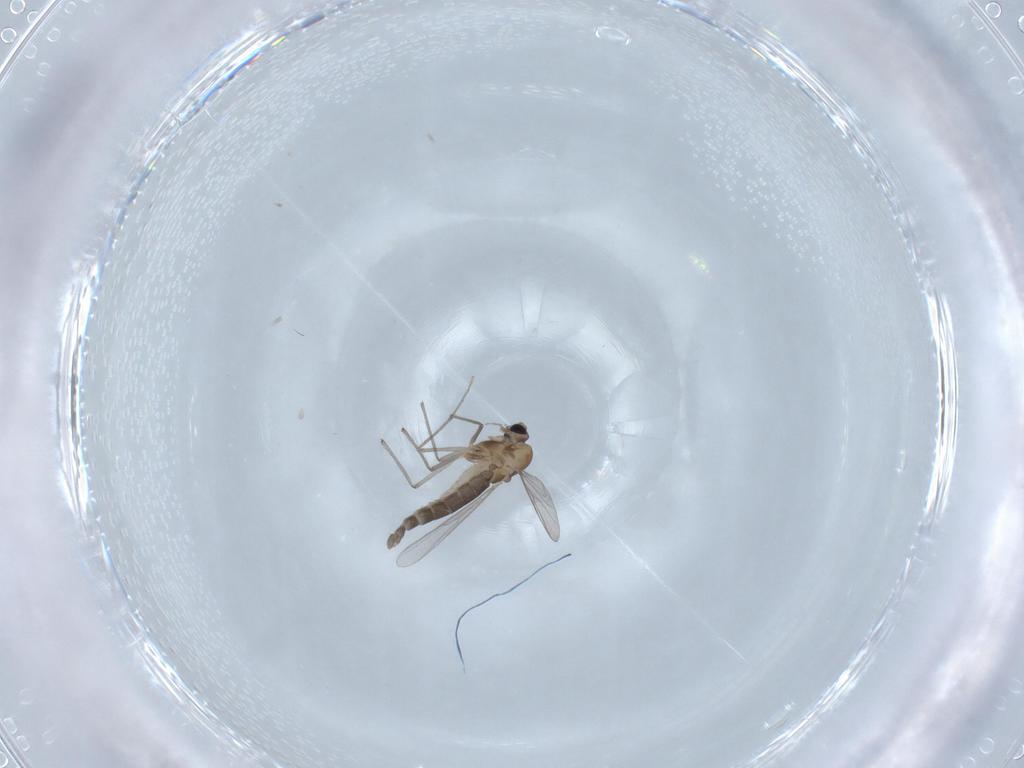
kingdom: Animalia
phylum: Arthropoda
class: Insecta
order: Diptera
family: Chironomidae
